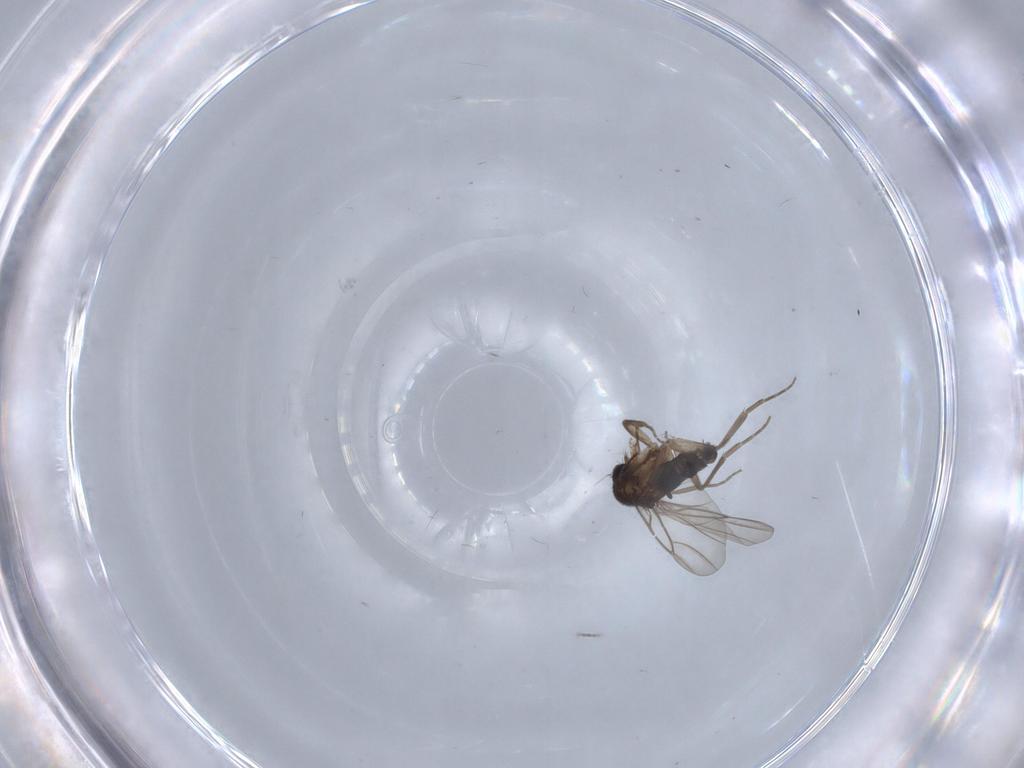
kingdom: Animalia
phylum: Arthropoda
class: Insecta
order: Diptera
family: Phoridae
